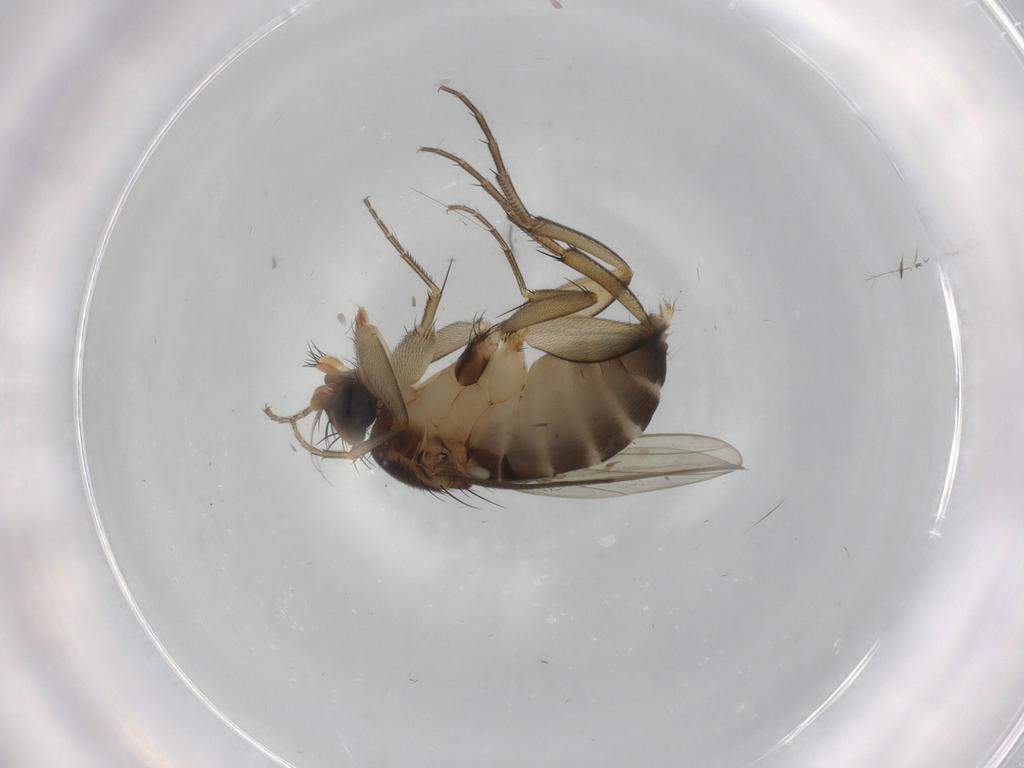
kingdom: Animalia
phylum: Arthropoda
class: Insecta
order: Diptera
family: Phoridae
